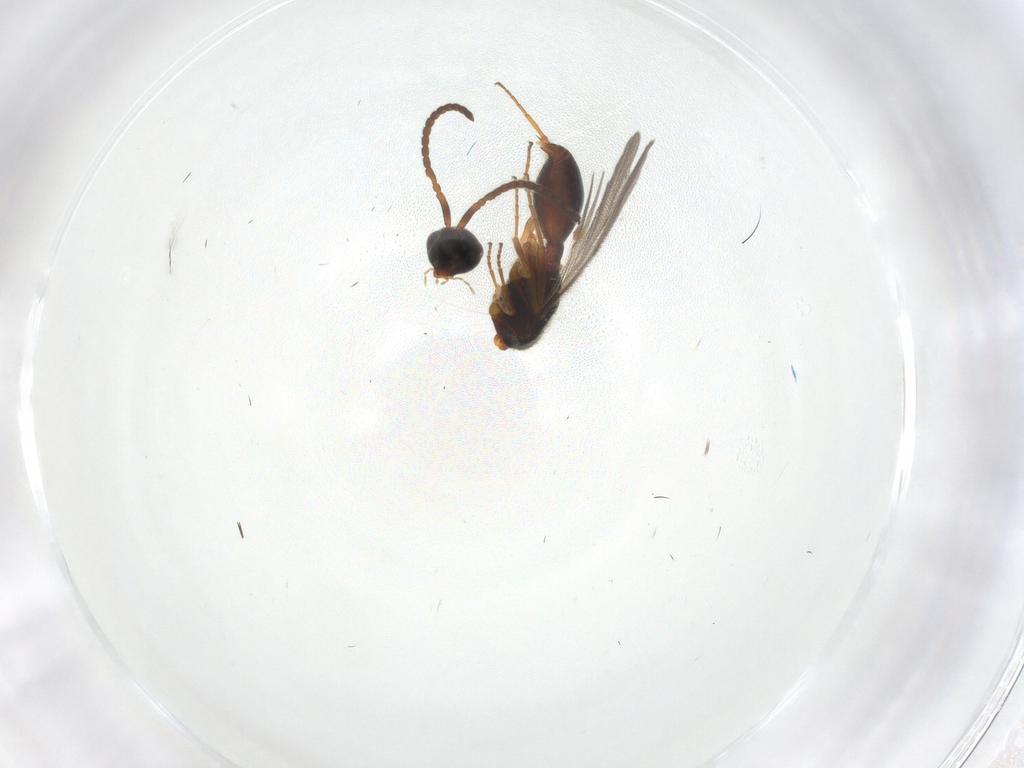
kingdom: Animalia
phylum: Arthropoda
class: Insecta
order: Hymenoptera
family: Diapriidae
